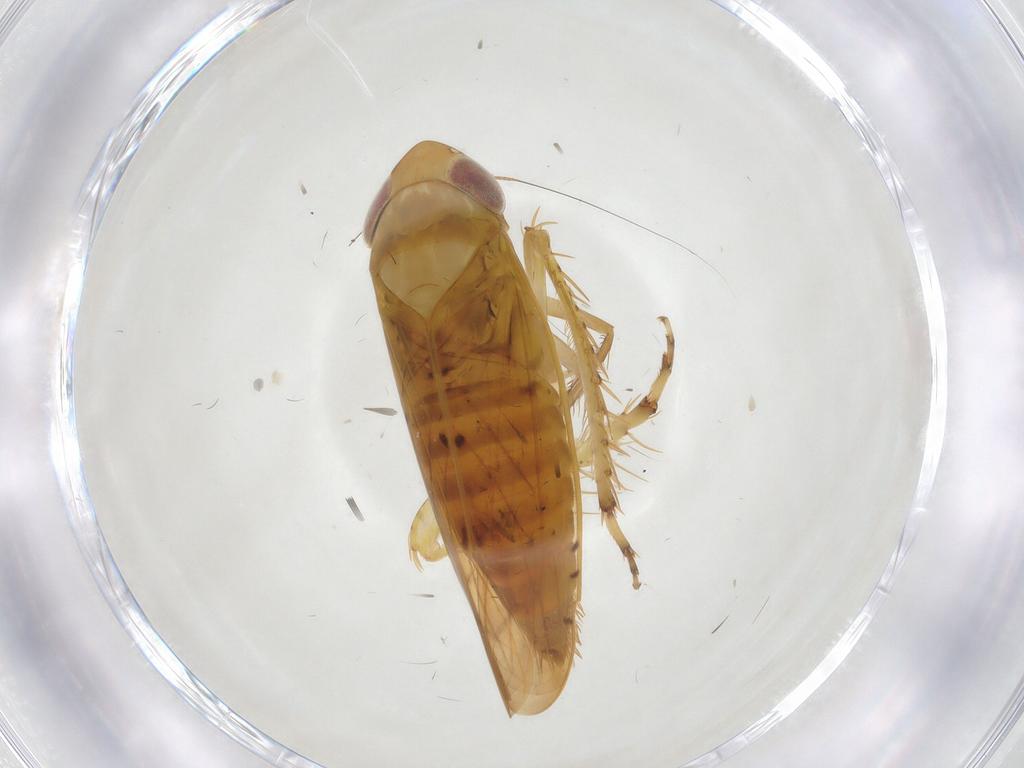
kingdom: Animalia
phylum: Arthropoda
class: Insecta
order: Hemiptera
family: Cicadellidae
